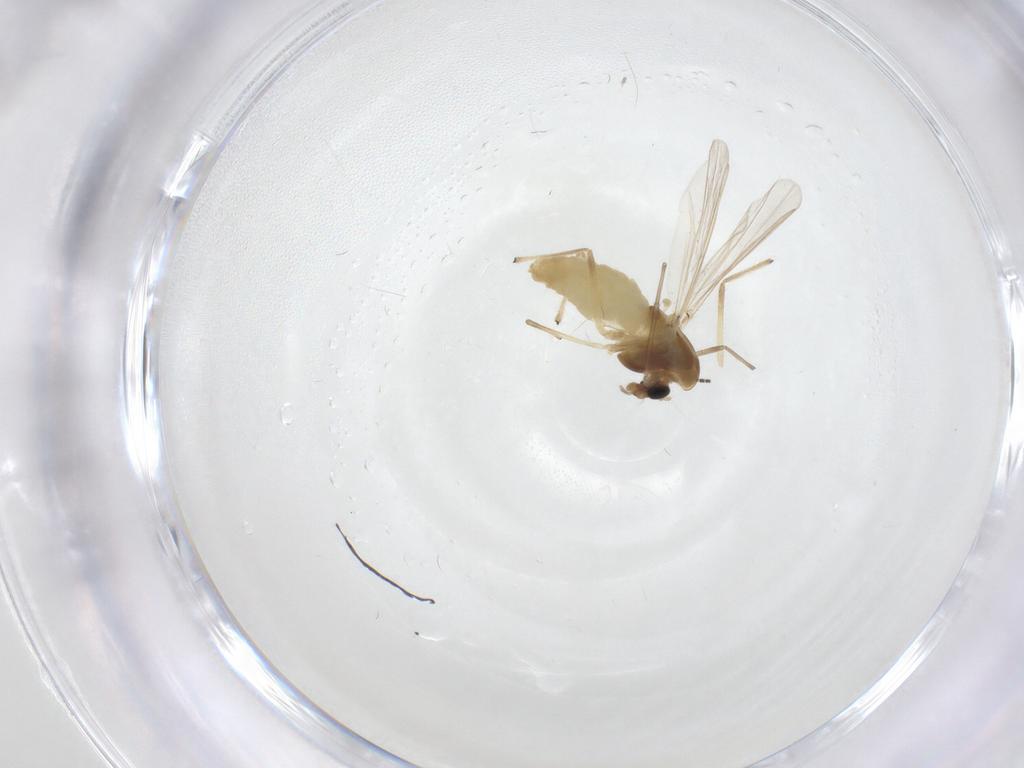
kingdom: Animalia
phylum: Arthropoda
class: Insecta
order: Diptera
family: Chironomidae
